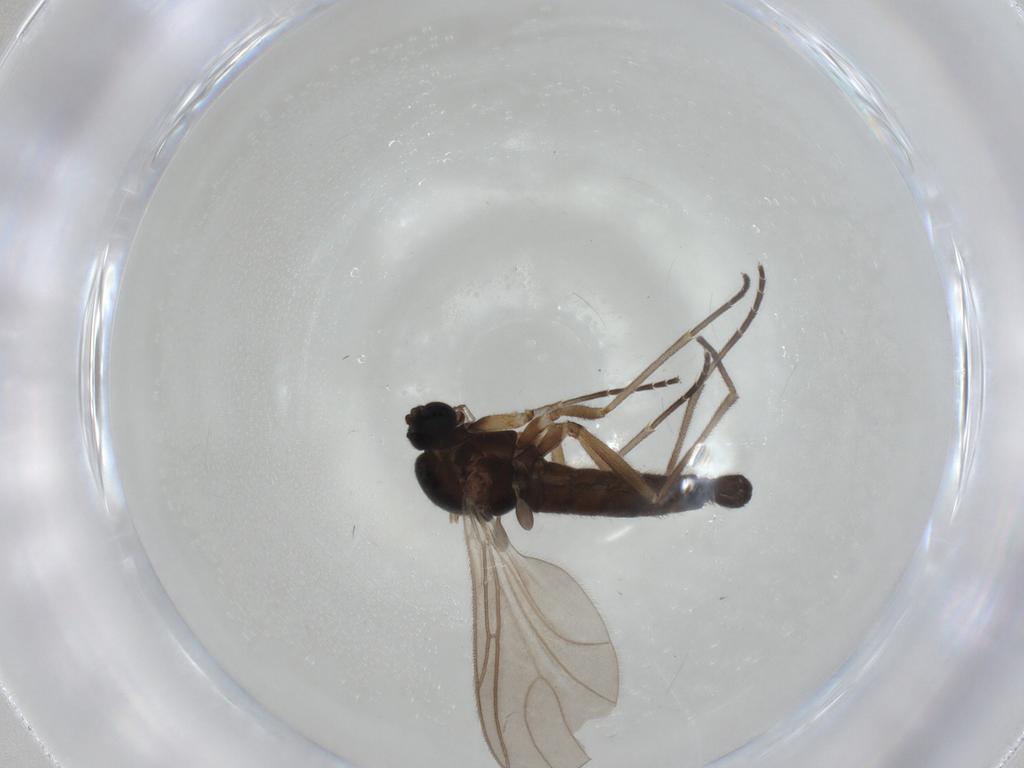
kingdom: Animalia
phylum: Arthropoda
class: Insecta
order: Diptera
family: Sciaridae
